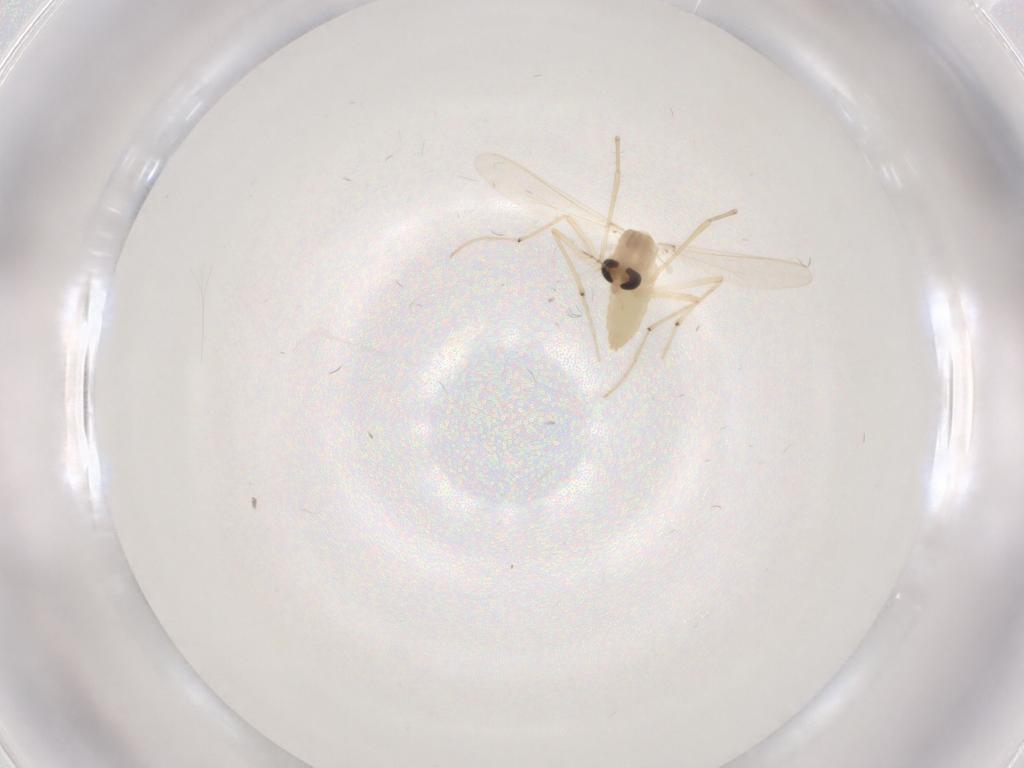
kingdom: Animalia
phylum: Arthropoda
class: Insecta
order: Diptera
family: Chironomidae
